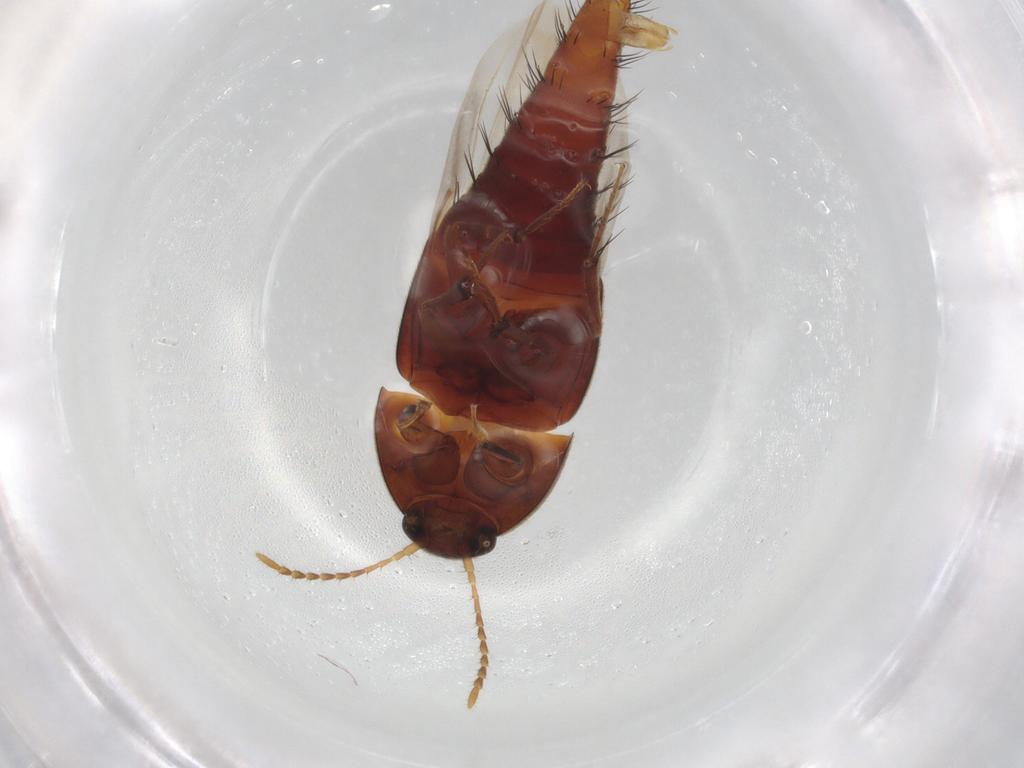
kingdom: Animalia
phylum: Arthropoda
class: Insecta
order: Coleoptera
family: Staphylinidae
